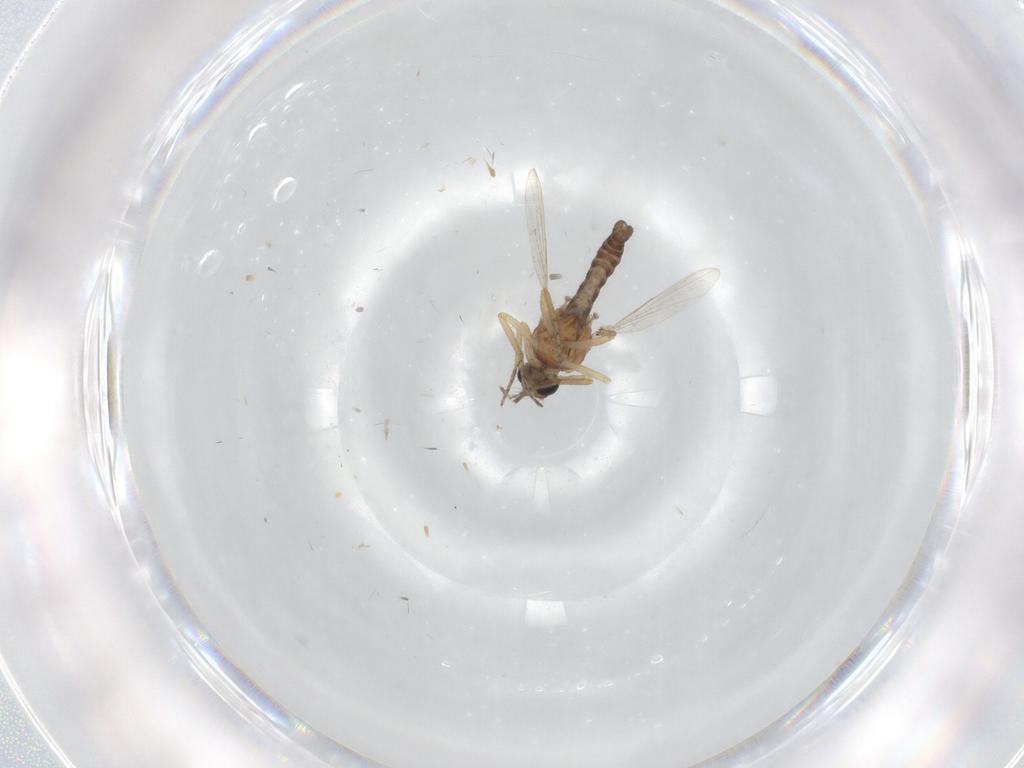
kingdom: Animalia
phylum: Arthropoda
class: Insecta
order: Diptera
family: Ceratopogonidae
